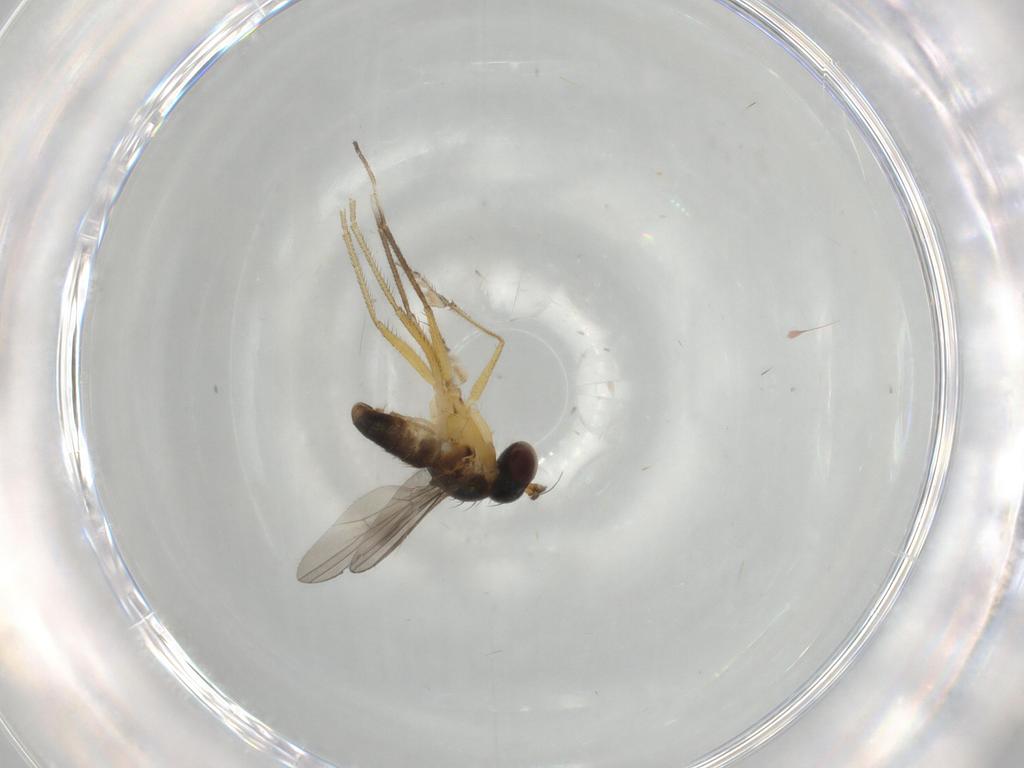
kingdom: Animalia
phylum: Arthropoda
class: Insecta
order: Diptera
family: Dolichopodidae
